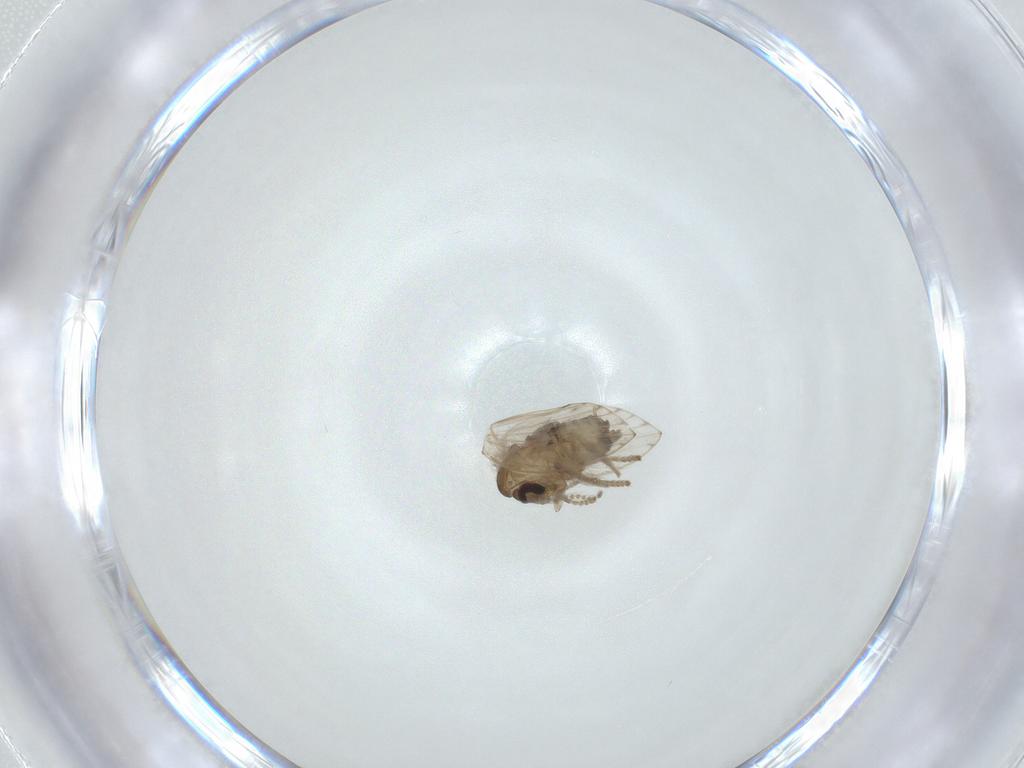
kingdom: Animalia
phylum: Arthropoda
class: Insecta
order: Diptera
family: Psychodidae
